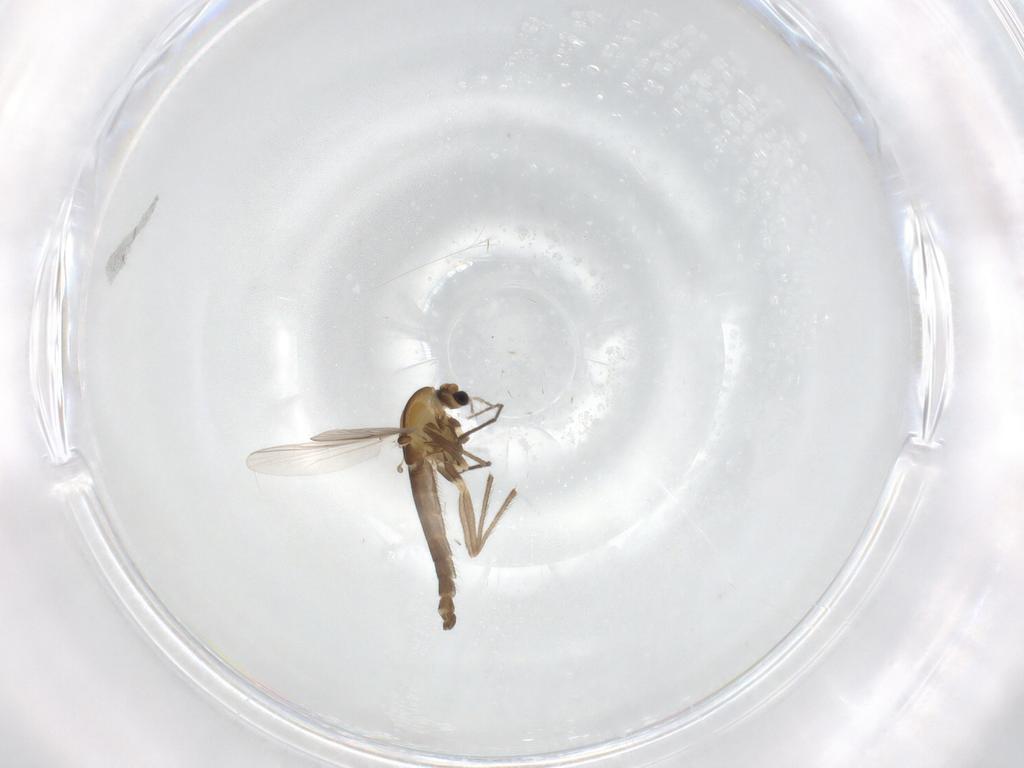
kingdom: Animalia
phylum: Arthropoda
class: Insecta
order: Diptera
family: Chironomidae
